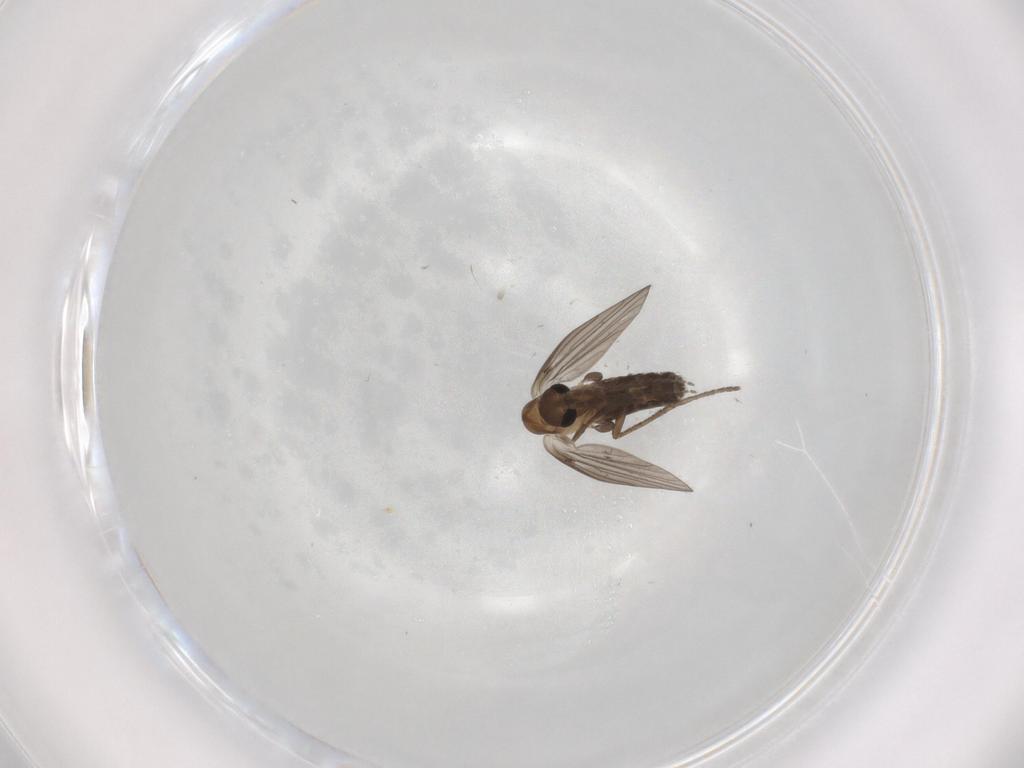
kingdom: Animalia
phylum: Arthropoda
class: Insecta
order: Diptera
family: Psychodidae
